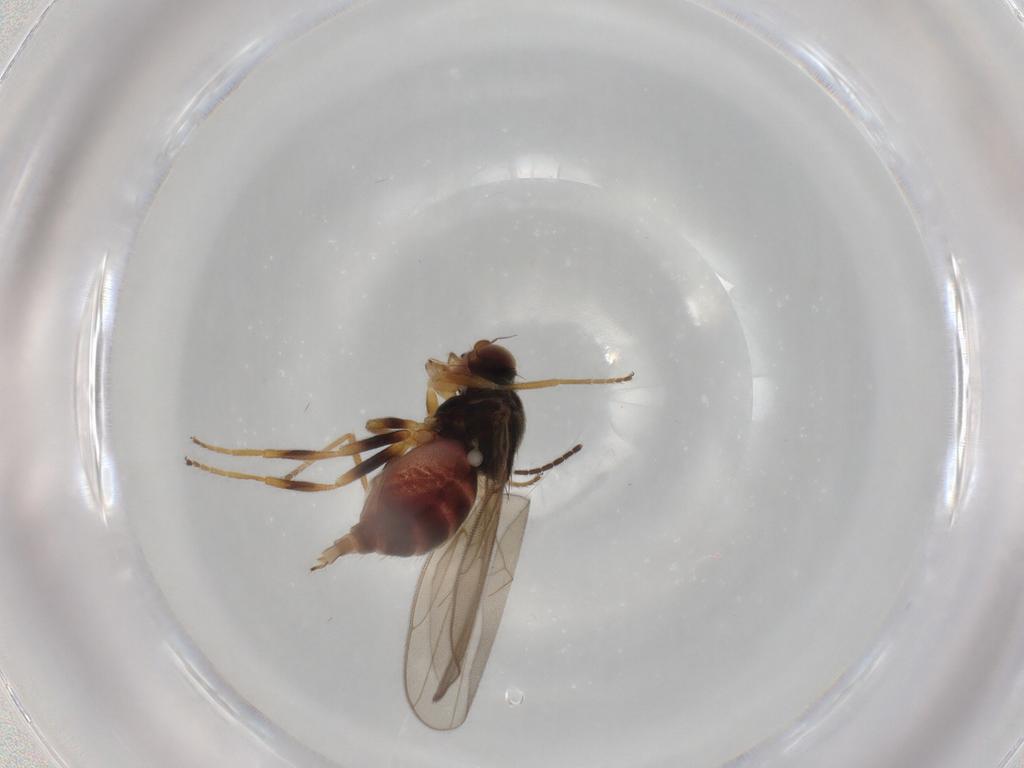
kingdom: Animalia
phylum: Arthropoda
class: Insecta
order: Diptera
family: Chloropidae
